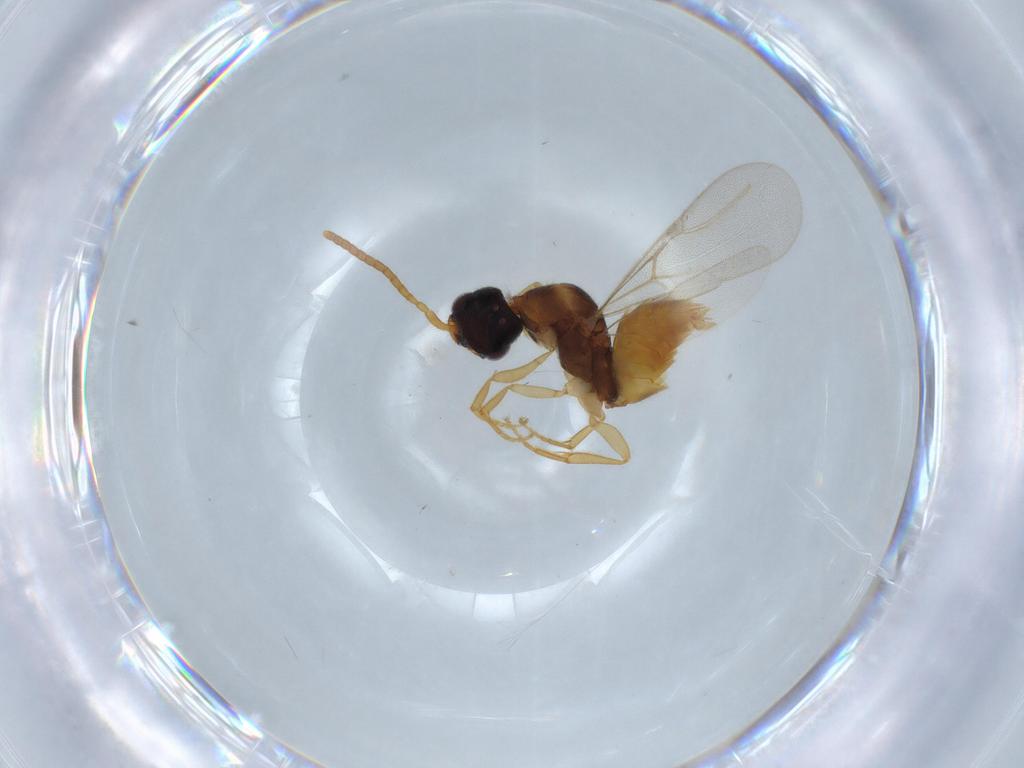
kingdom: Animalia
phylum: Arthropoda
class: Insecta
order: Hymenoptera
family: Bethylidae
